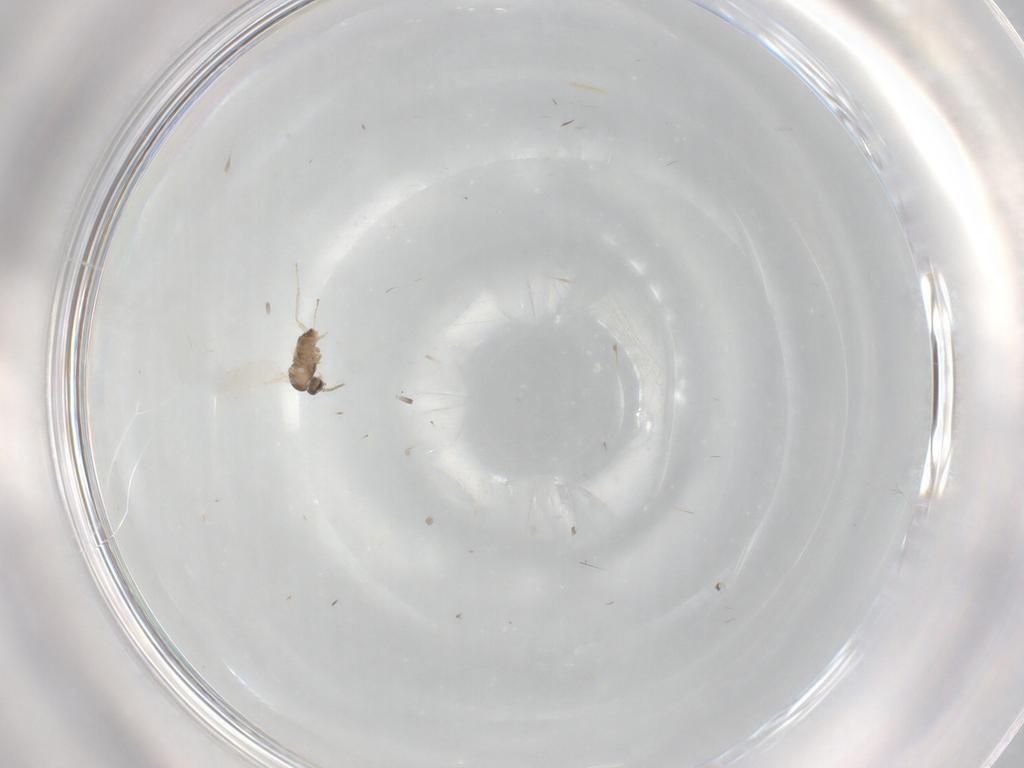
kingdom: Animalia
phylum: Arthropoda
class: Insecta
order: Diptera
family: Cecidomyiidae
